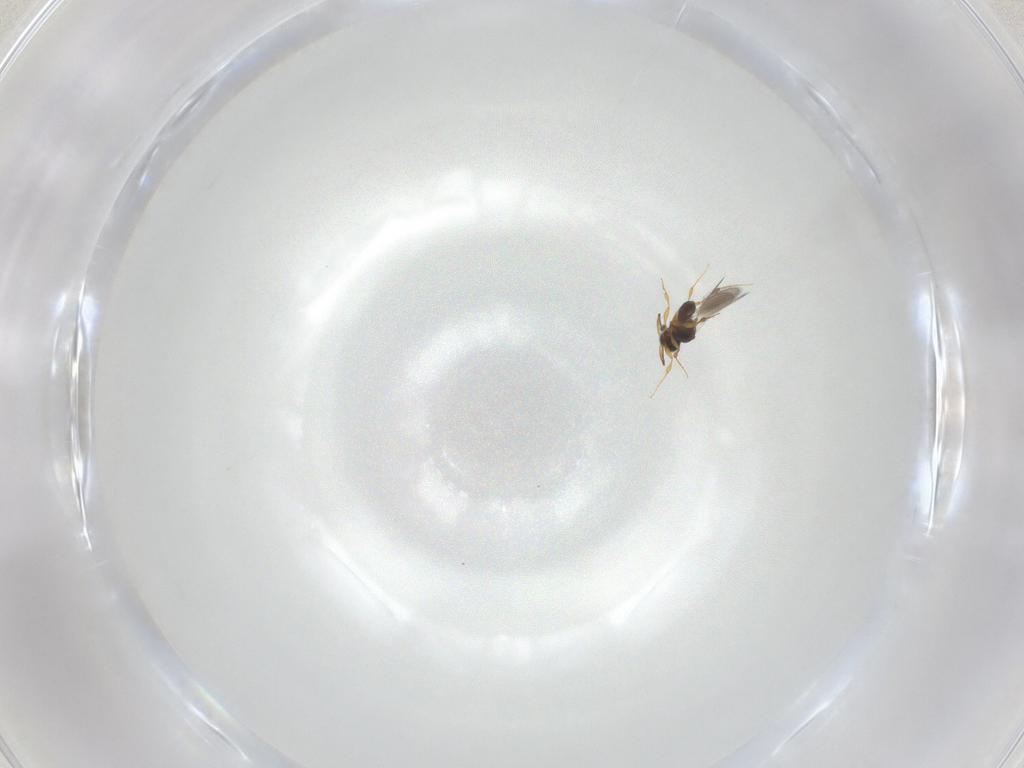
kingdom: Animalia
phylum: Arthropoda
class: Insecta
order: Hymenoptera
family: Platygastridae
